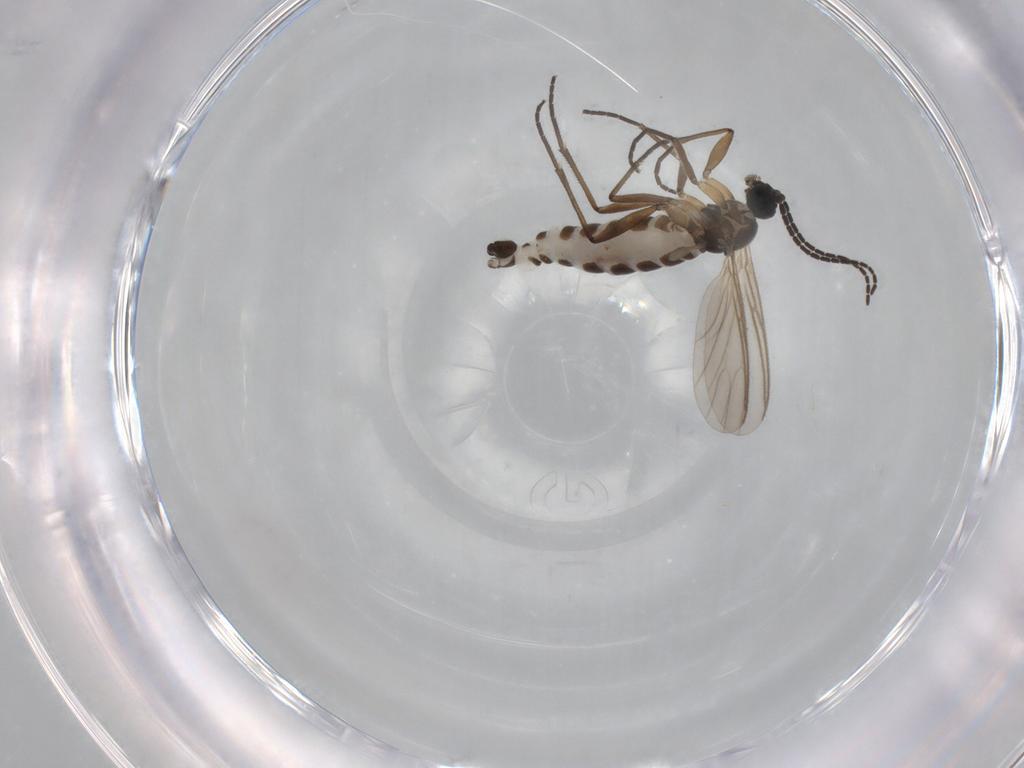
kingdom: Animalia
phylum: Arthropoda
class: Insecta
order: Diptera
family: Sciaridae
